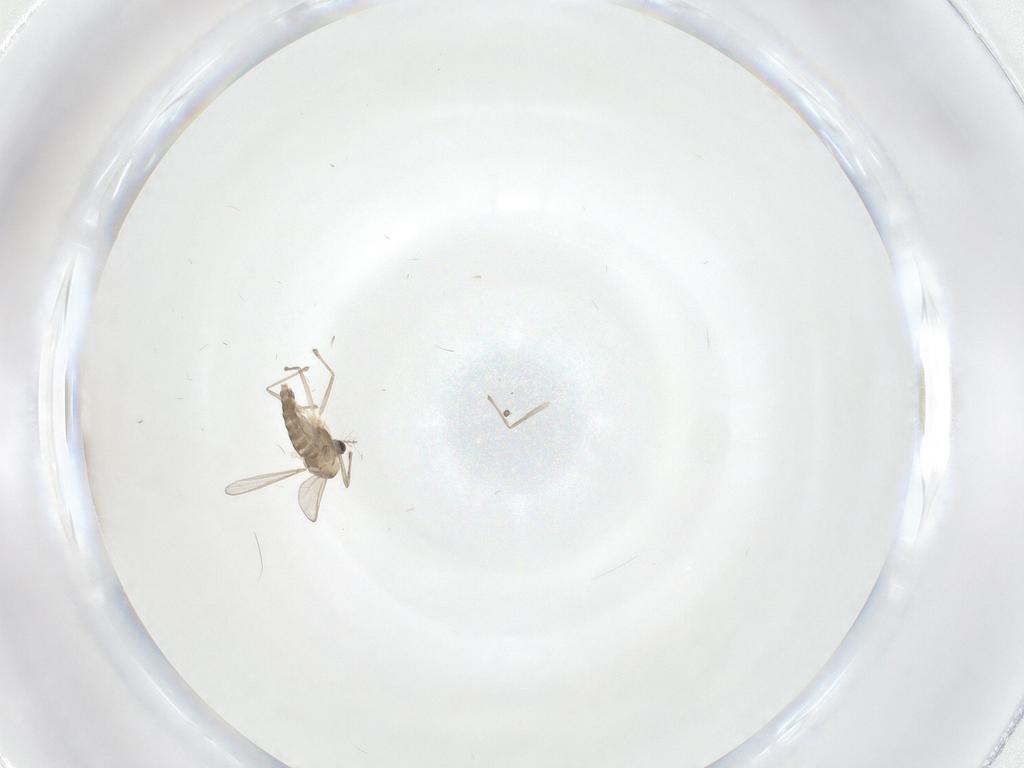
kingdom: Animalia
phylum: Arthropoda
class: Insecta
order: Diptera
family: Chironomidae
